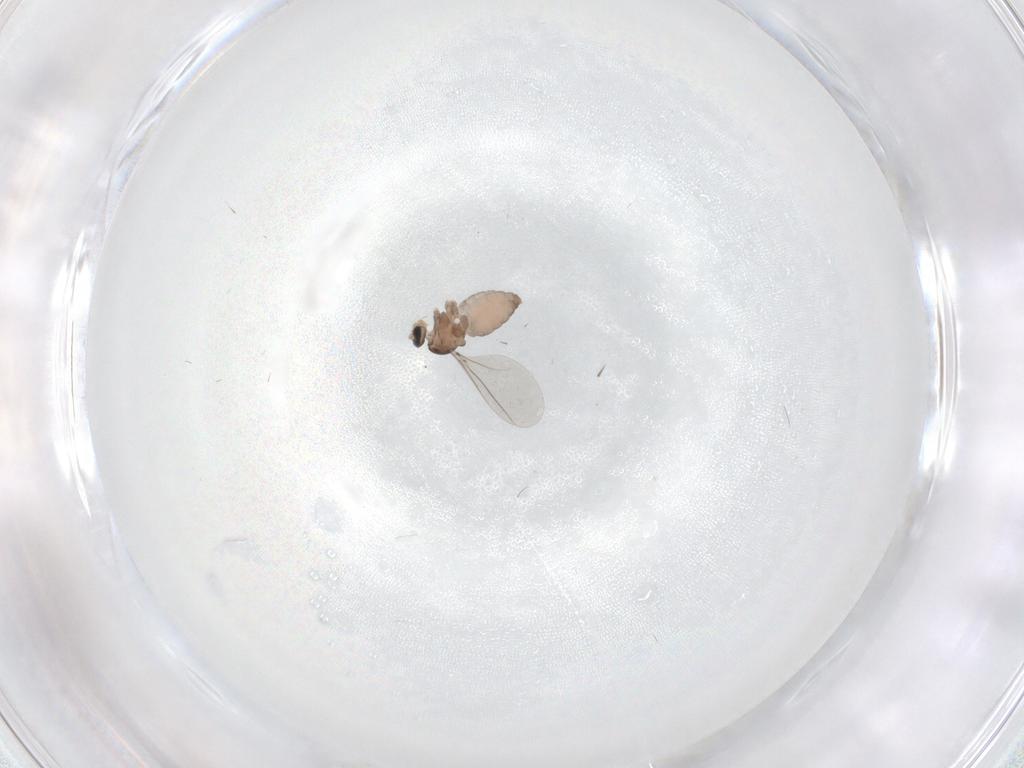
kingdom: Animalia
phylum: Arthropoda
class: Insecta
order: Diptera
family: Cecidomyiidae
